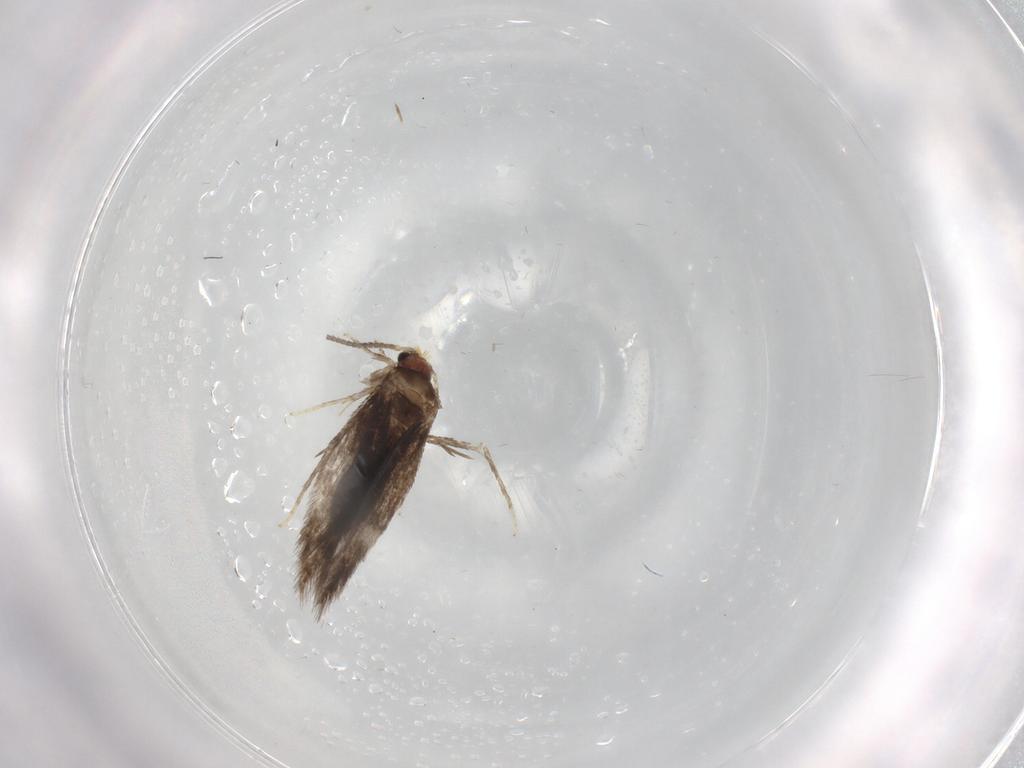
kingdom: Animalia
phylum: Arthropoda
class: Insecta
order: Lepidoptera
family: Nepticulidae
